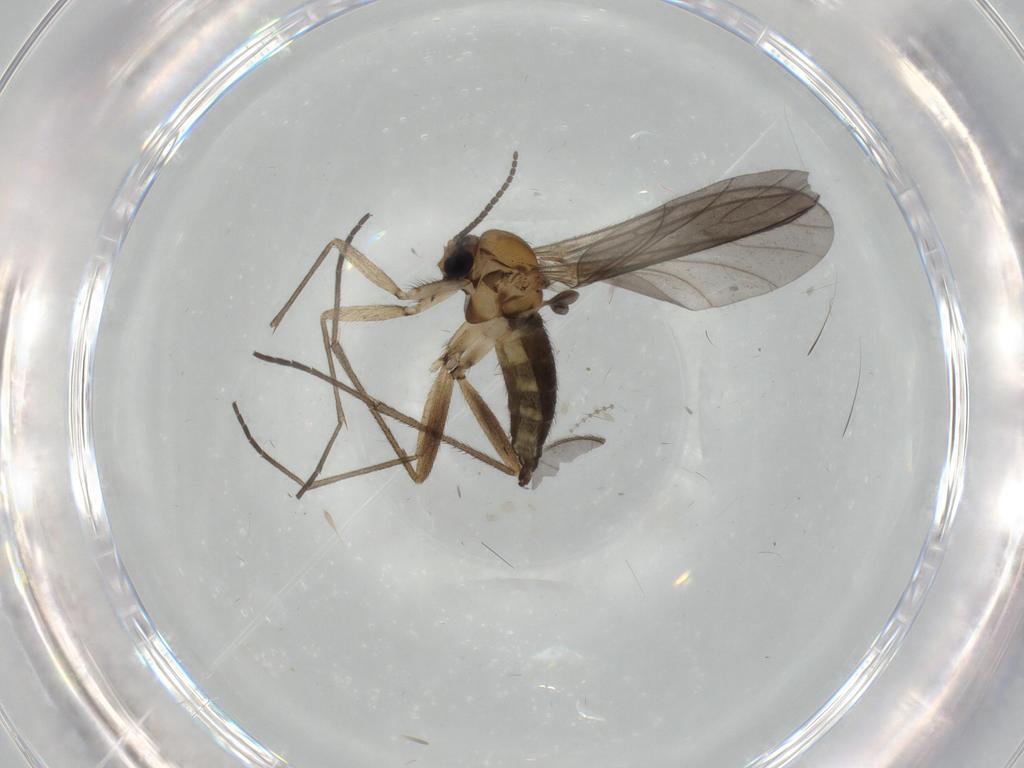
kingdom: Animalia
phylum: Arthropoda
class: Insecta
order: Diptera
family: Sciaridae
